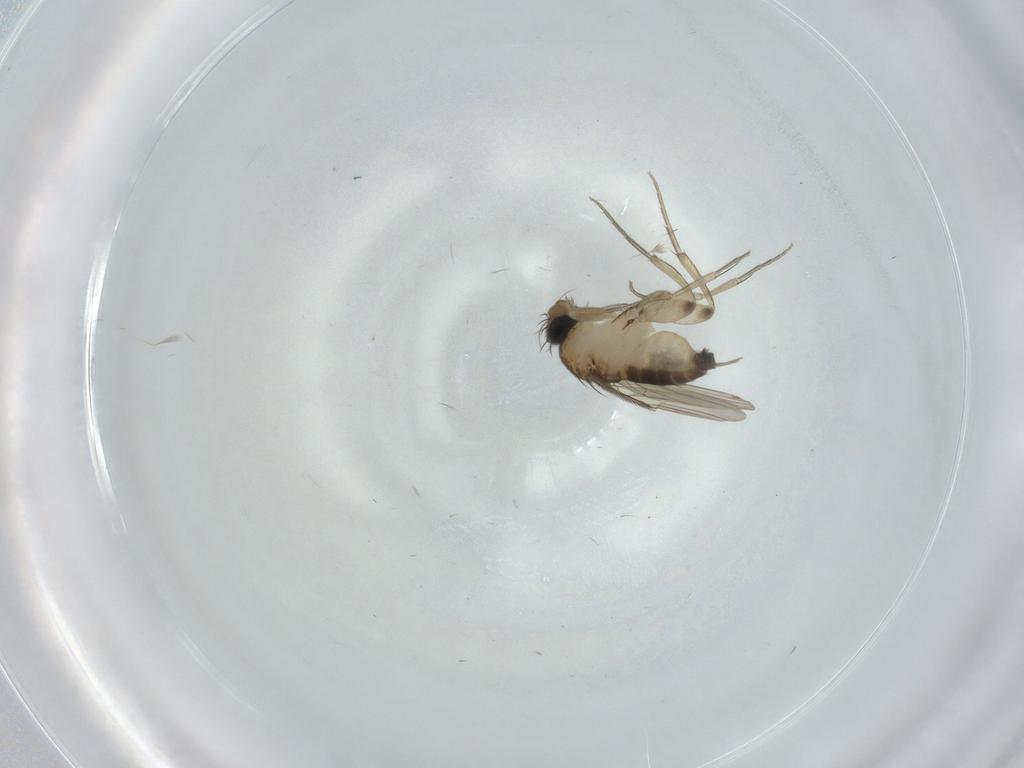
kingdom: Animalia
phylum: Arthropoda
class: Insecta
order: Diptera
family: Phoridae
